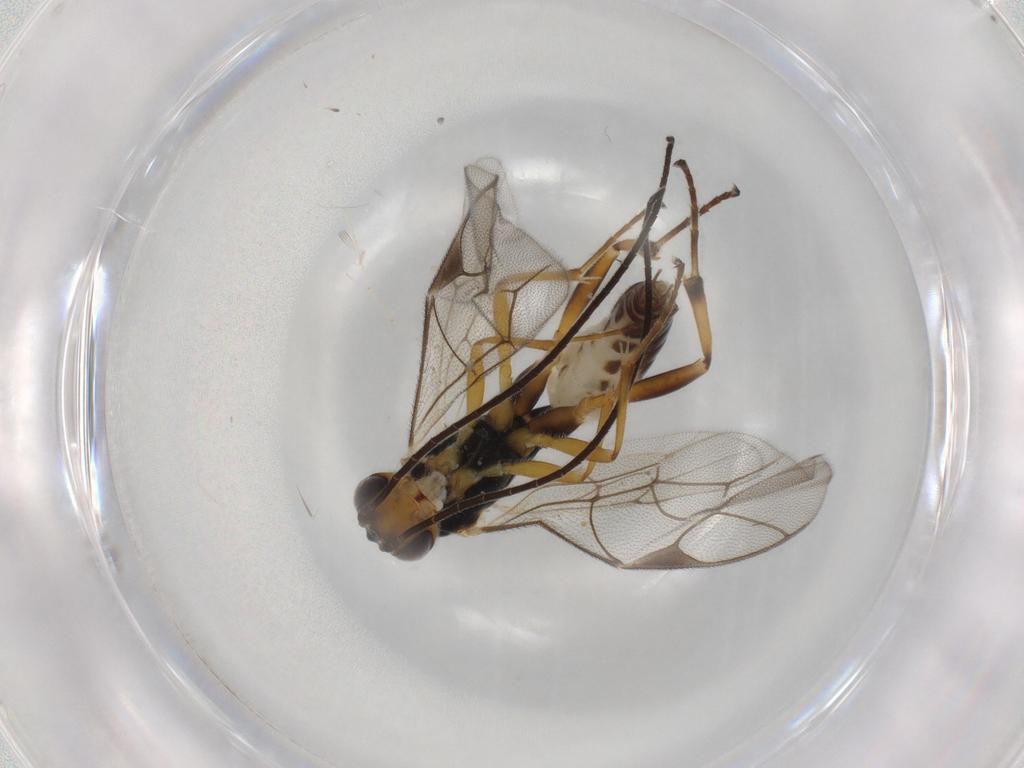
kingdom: Animalia
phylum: Arthropoda
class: Insecta
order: Hymenoptera
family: Ichneumonidae
